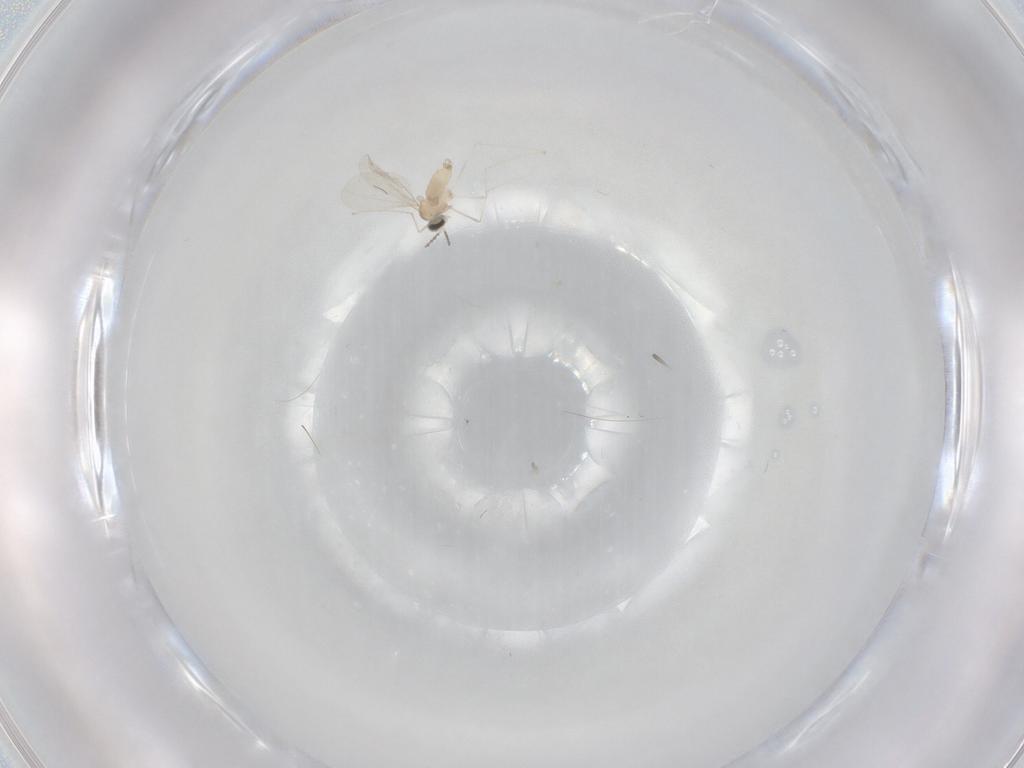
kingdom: Animalia
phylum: Arthropoda
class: Insecta
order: Diptera
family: Cecidomyiidae
